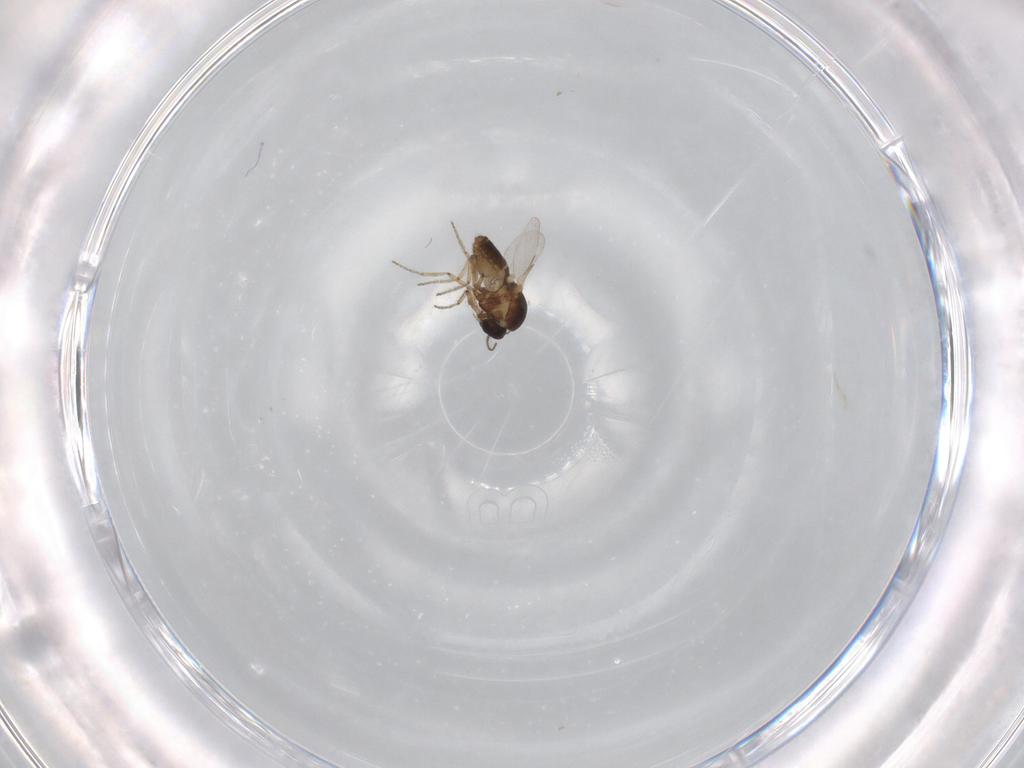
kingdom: Animalia
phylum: Arthropoda
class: Insecta
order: Diptera
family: Ceratopogonidae
